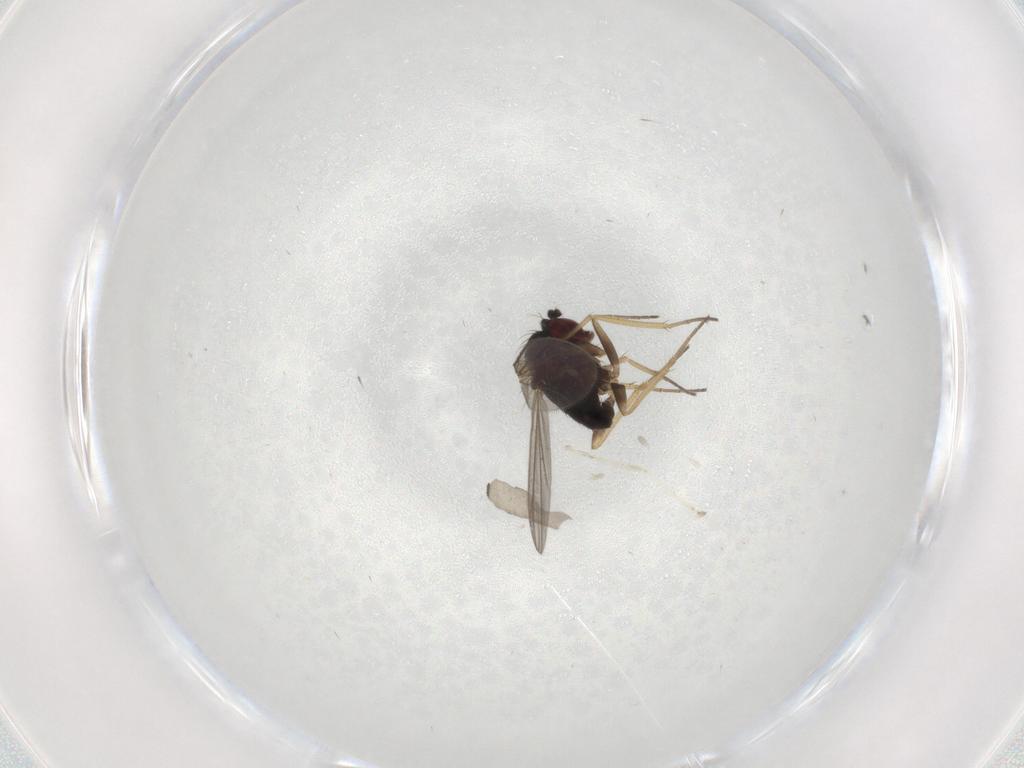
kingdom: Animalia
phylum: Arthropoda
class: Insecta
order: Diptera
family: Dolichopodidae
